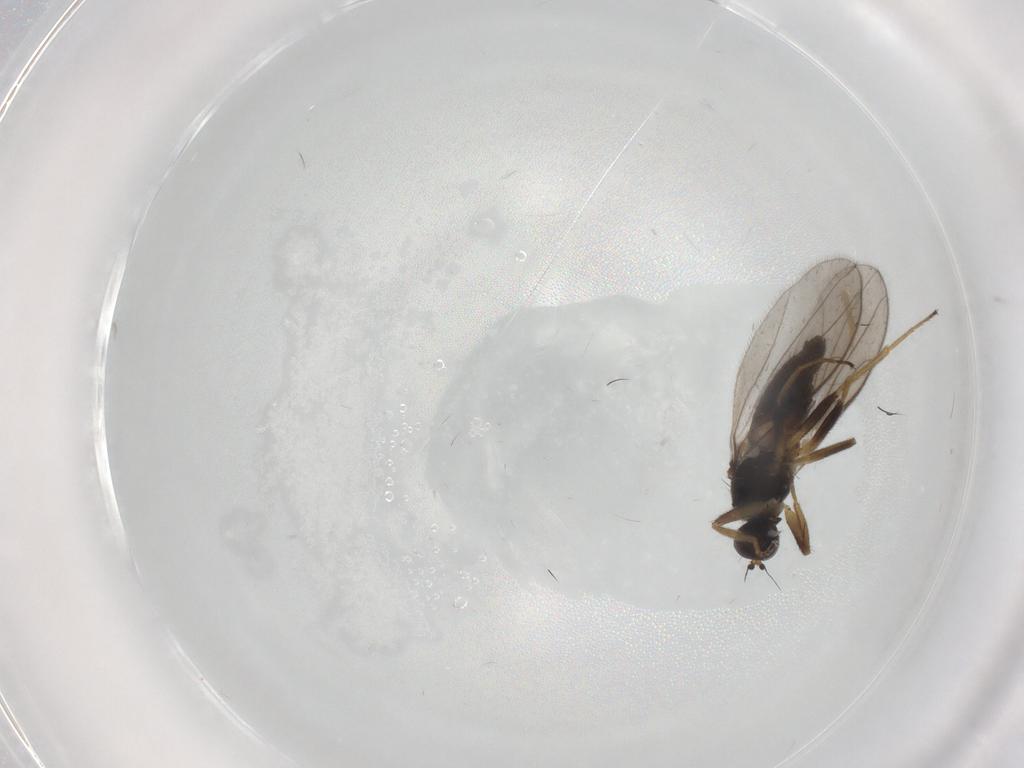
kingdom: Animalia
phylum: Arthropoda
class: Insecta
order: Diptera
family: Hybotidae
